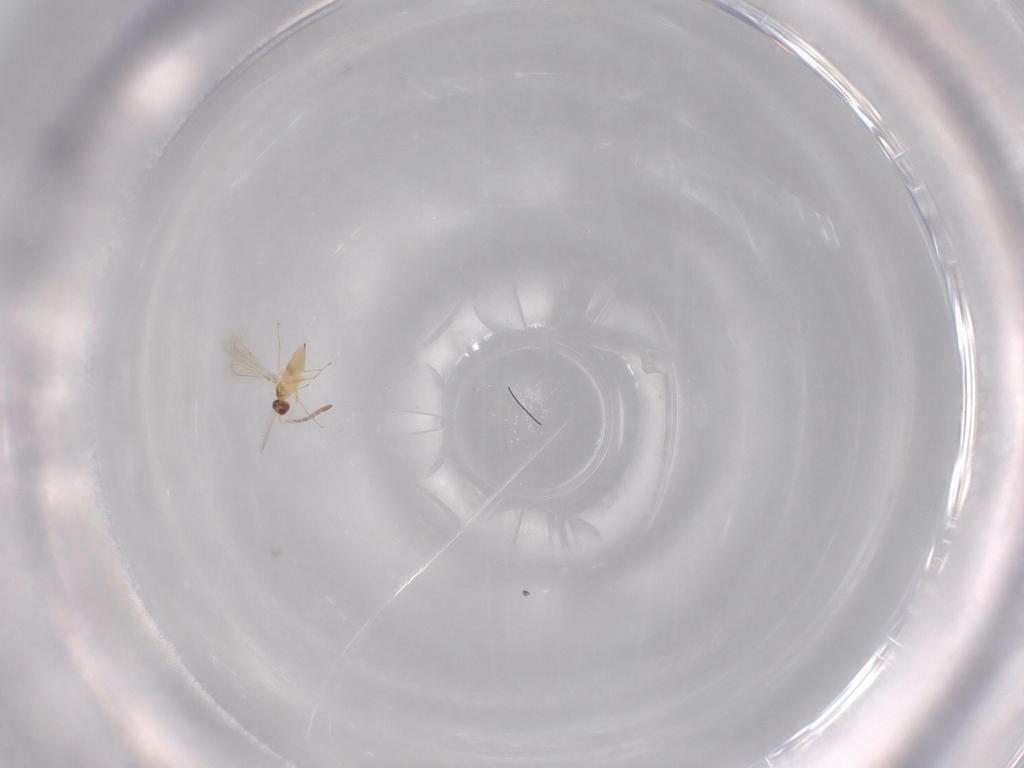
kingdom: Animalia
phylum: Arthropoda
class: Insecta
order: Hymenoptera
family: Mymaridae
